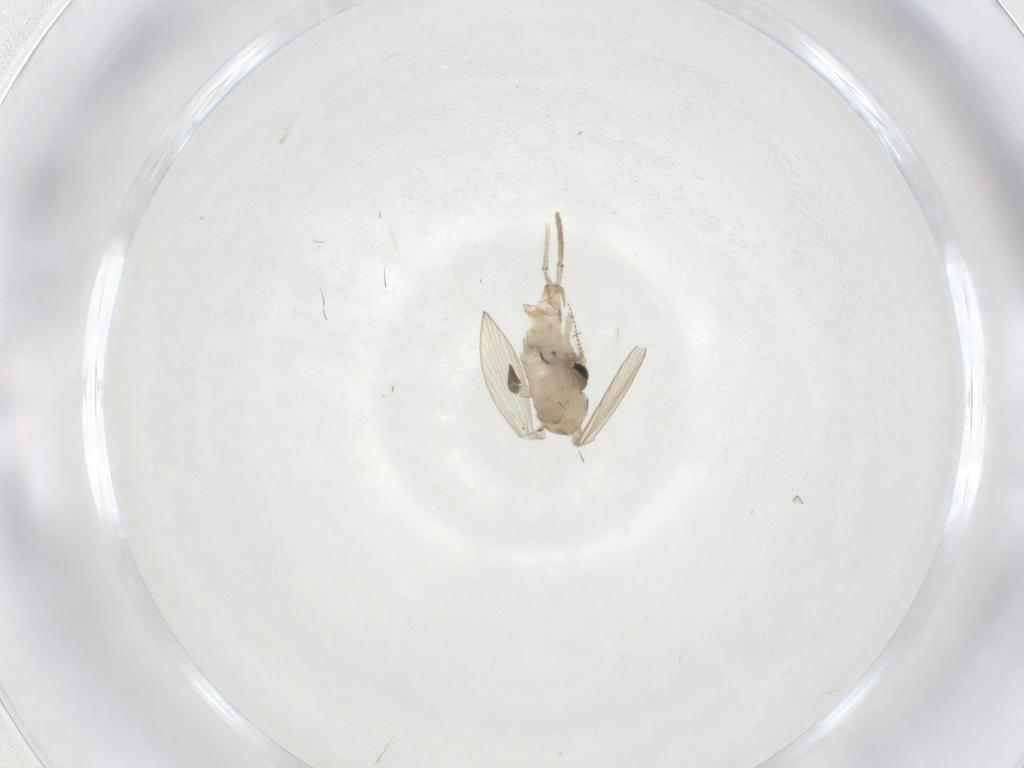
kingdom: Animalia
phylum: Arthropoda
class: Insecta
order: Diptera
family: Psychodidae
